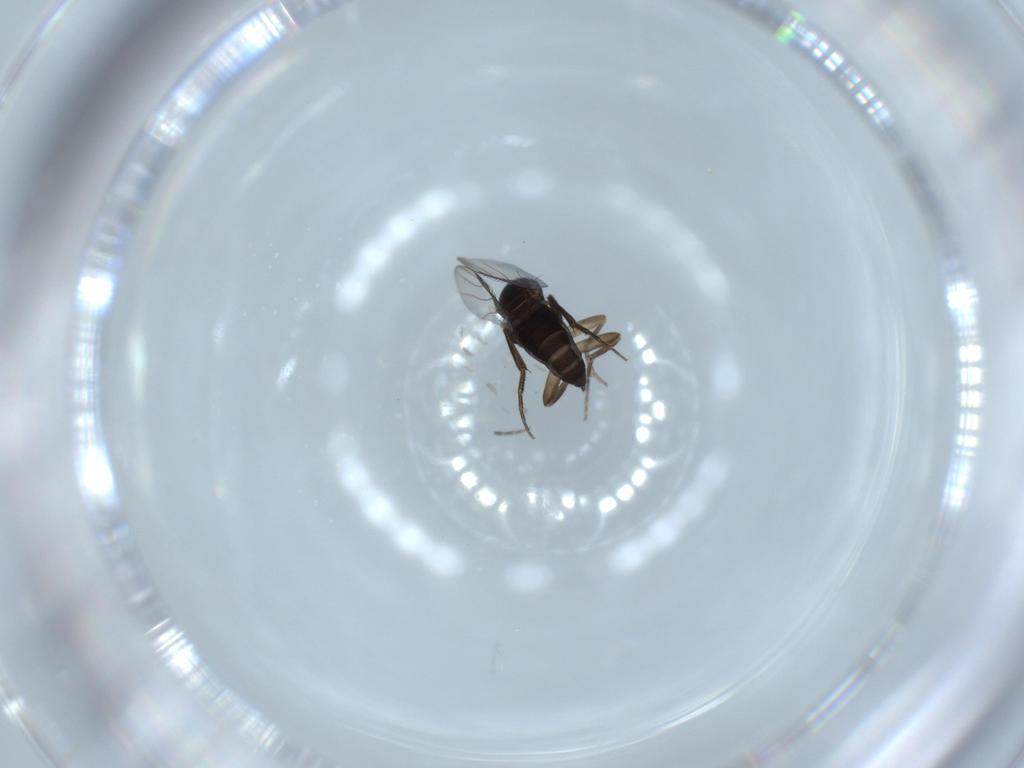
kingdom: Animalia
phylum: Arthropoda
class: Insecta
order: Diptera
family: Phoridae
